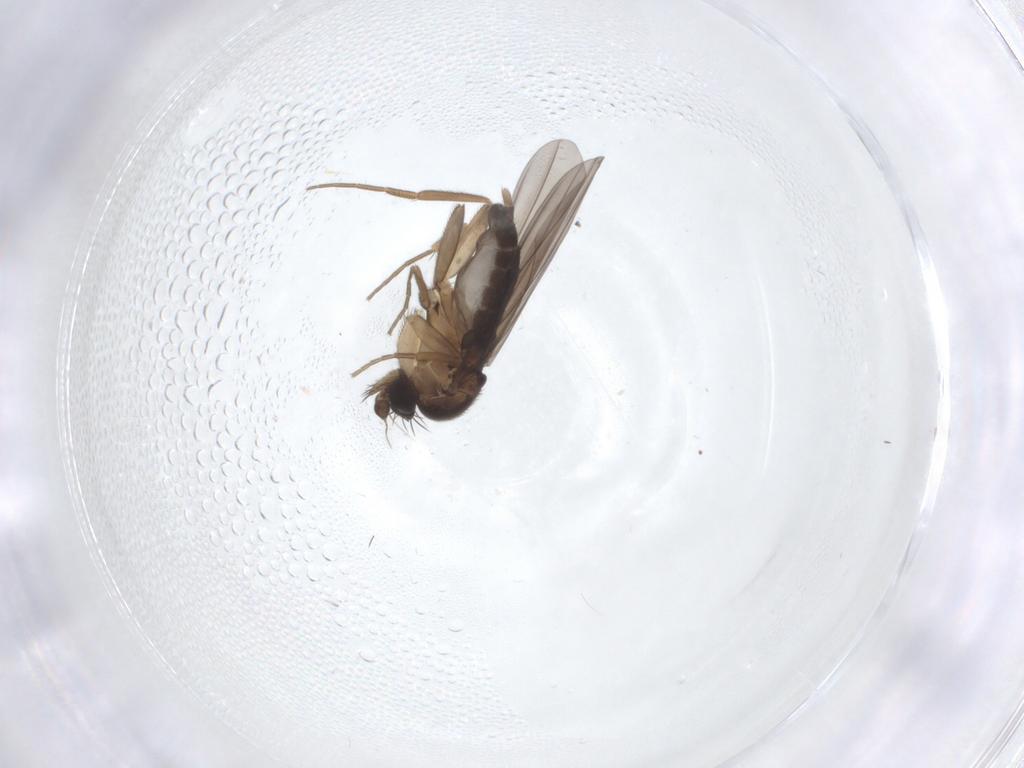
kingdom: Animalia
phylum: Arthropoda
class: Insecta
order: Diptera
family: Phoridae
